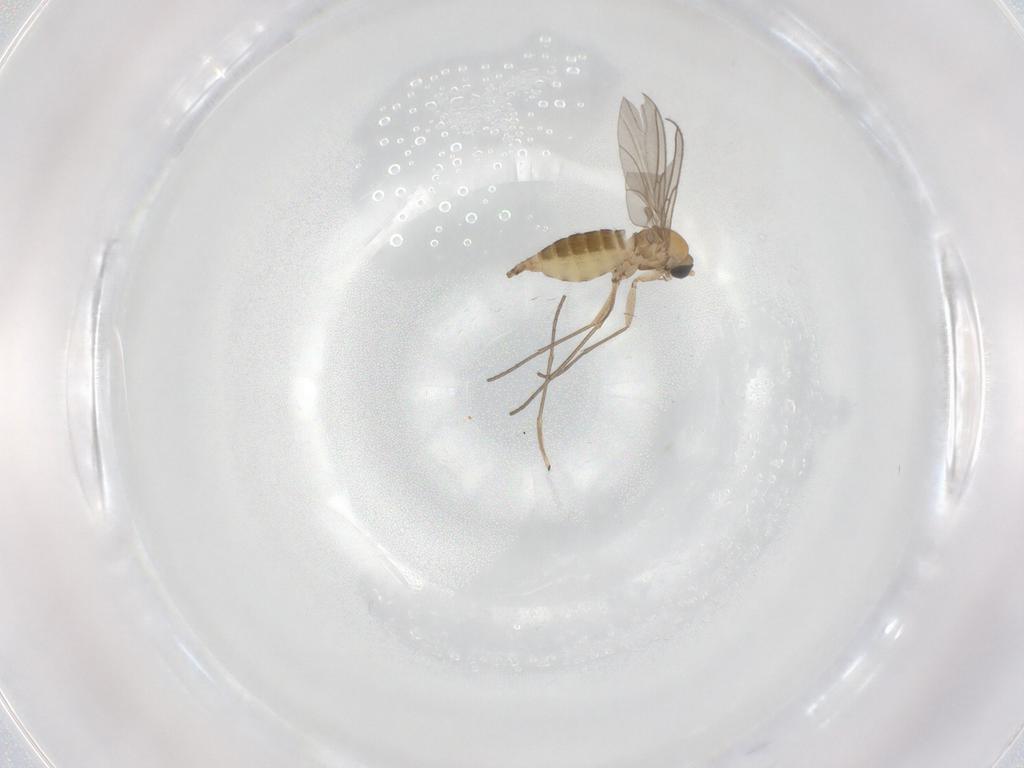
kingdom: Animalia
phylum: Arthropoda
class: Insecta
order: Diptera
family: Sciaridae
